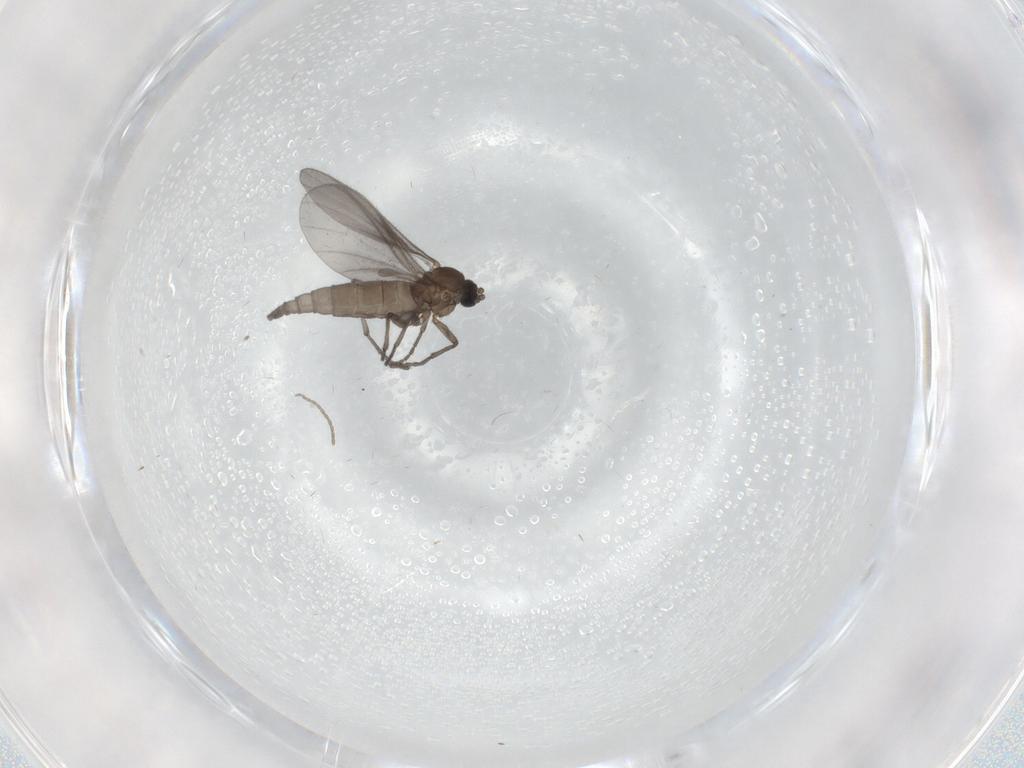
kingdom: Animalia
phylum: Arthropoda
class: Insecta
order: Diptera
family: Sciaridae
